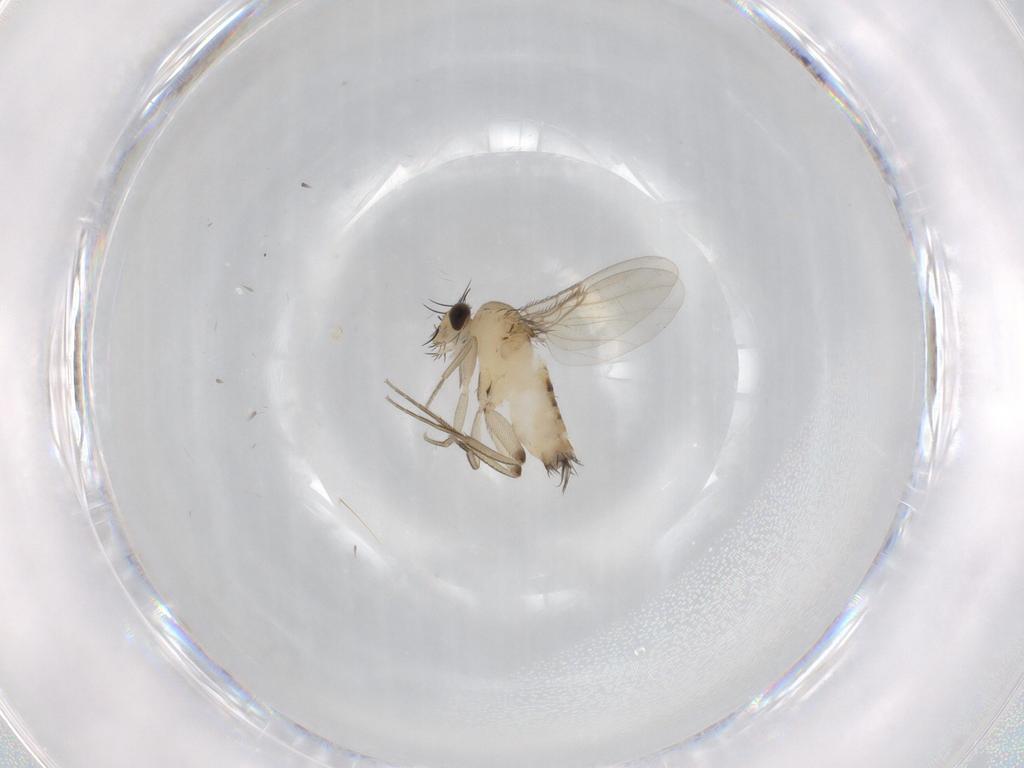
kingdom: Animalia
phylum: Arthropoda
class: Insecta
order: Diptera
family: Phoridae
